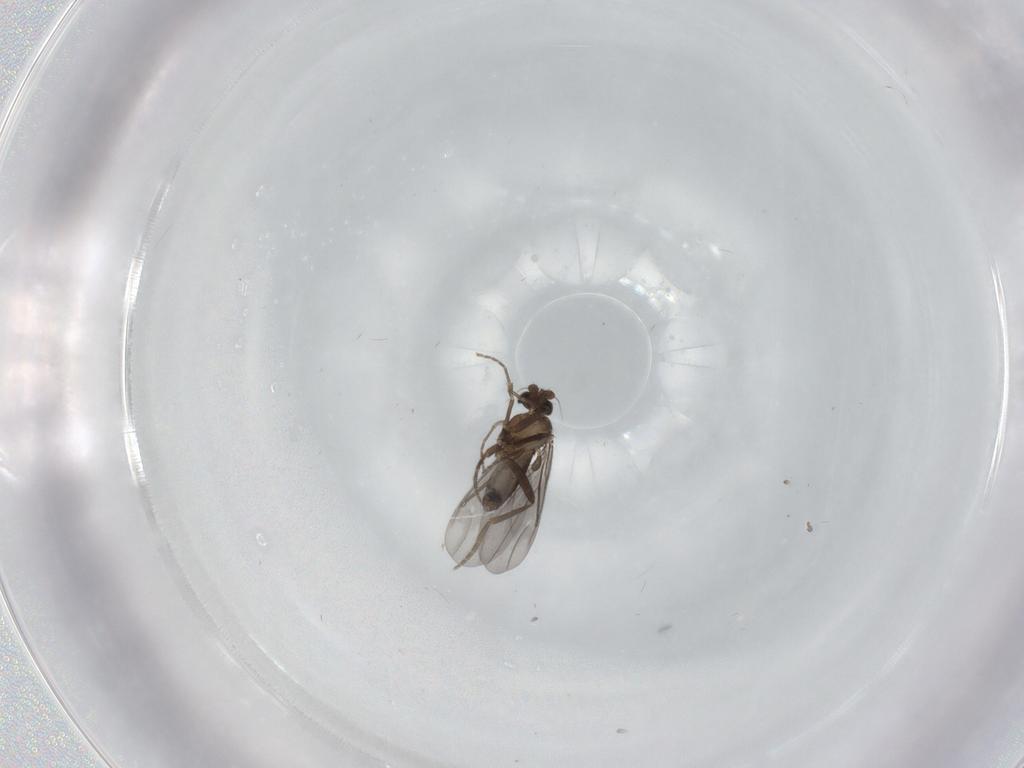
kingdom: Animalia
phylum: Arthropoda
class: Insecta
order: Diptera
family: Phoridae
